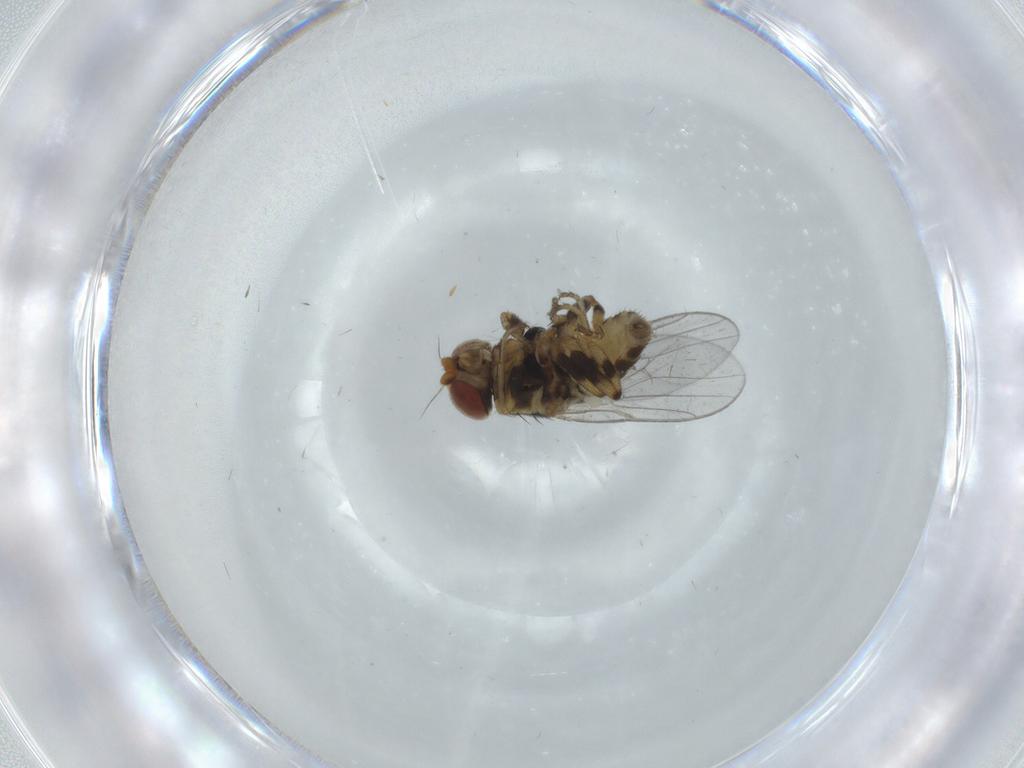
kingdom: Animalia
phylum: Arthropoda
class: Insecta
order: Diptera
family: Chloropidae
